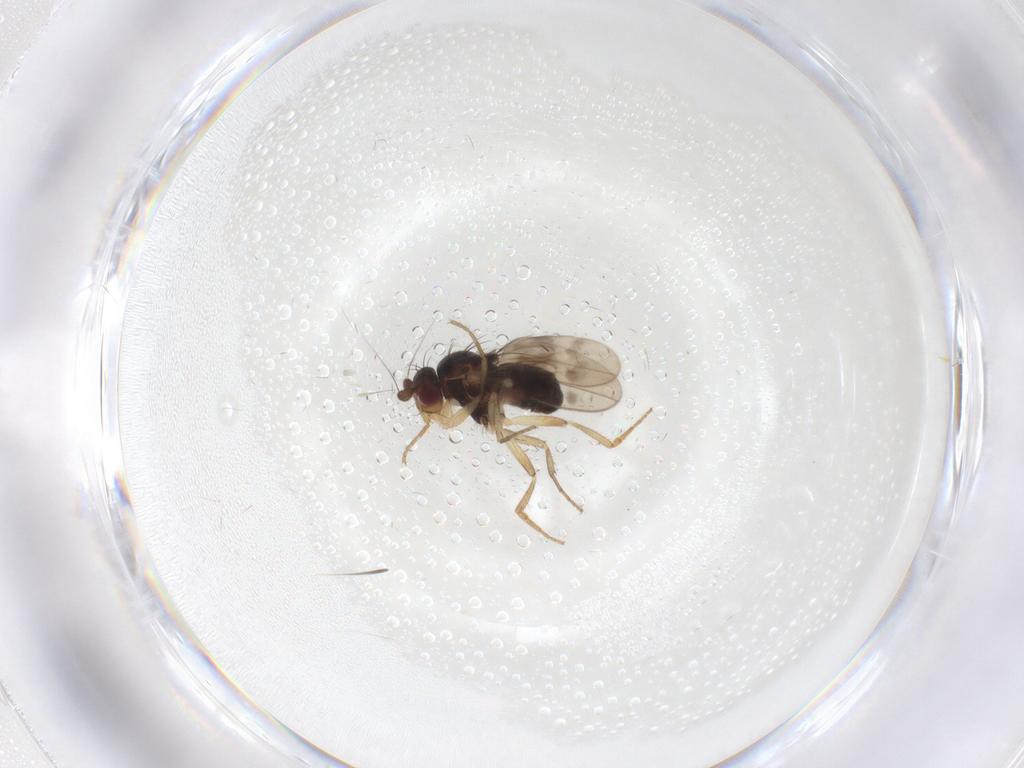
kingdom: Animalia
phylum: Arthropoda
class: Insecta
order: Diptera
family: Sphaeroceridae
